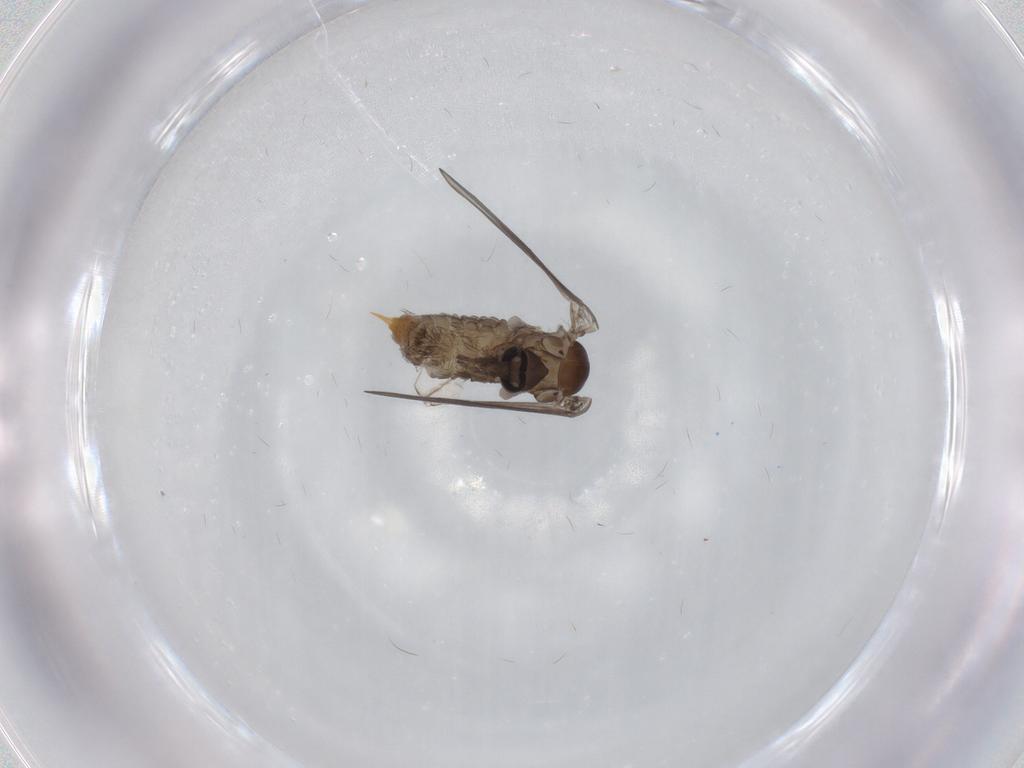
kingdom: Animalia
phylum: Arthropoda
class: Insecta
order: Diptera
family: Psychodidae
